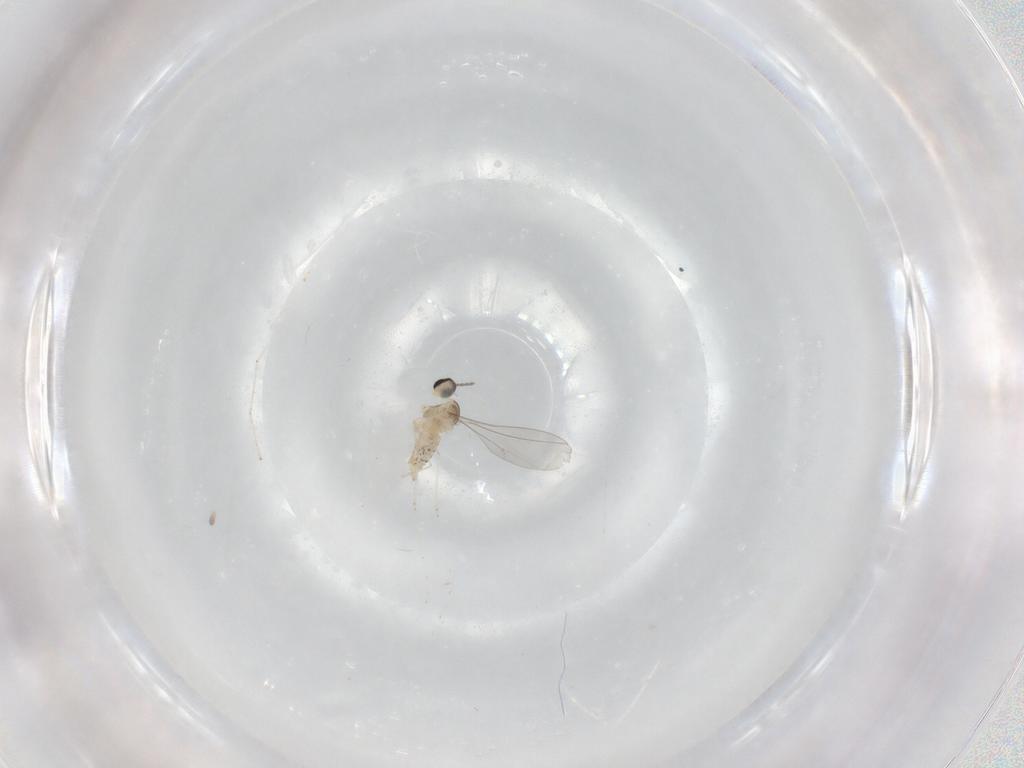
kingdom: Animalia
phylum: Arthropoda
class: Insecta
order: Diptera
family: Cecidomyiidae
